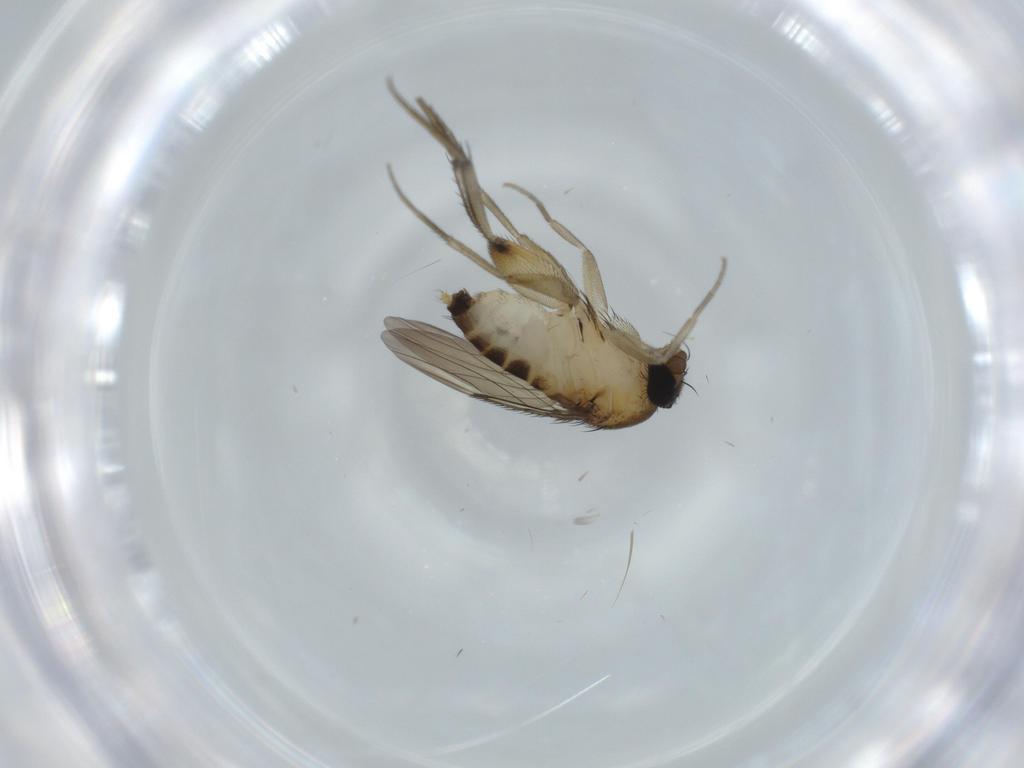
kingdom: Animalia
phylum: Arthropoda
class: Insecta
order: Diptera
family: Phoridae
